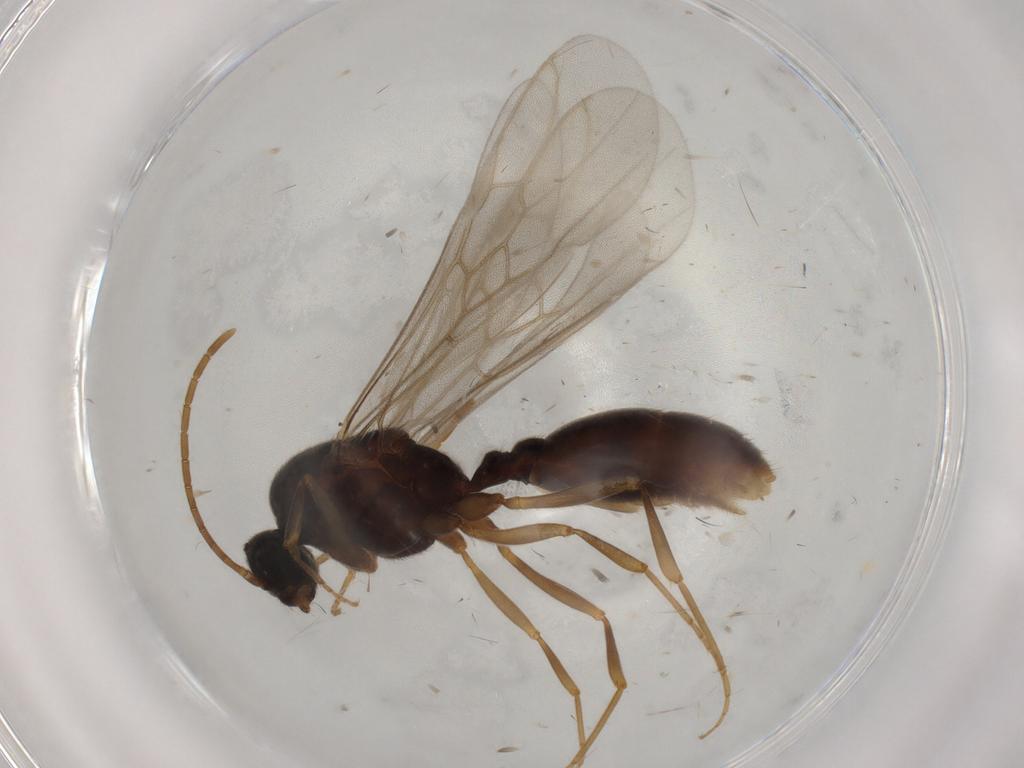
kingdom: Animalia
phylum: Arthropoda
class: Insecta
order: Hymenoptera
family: Formicidae
